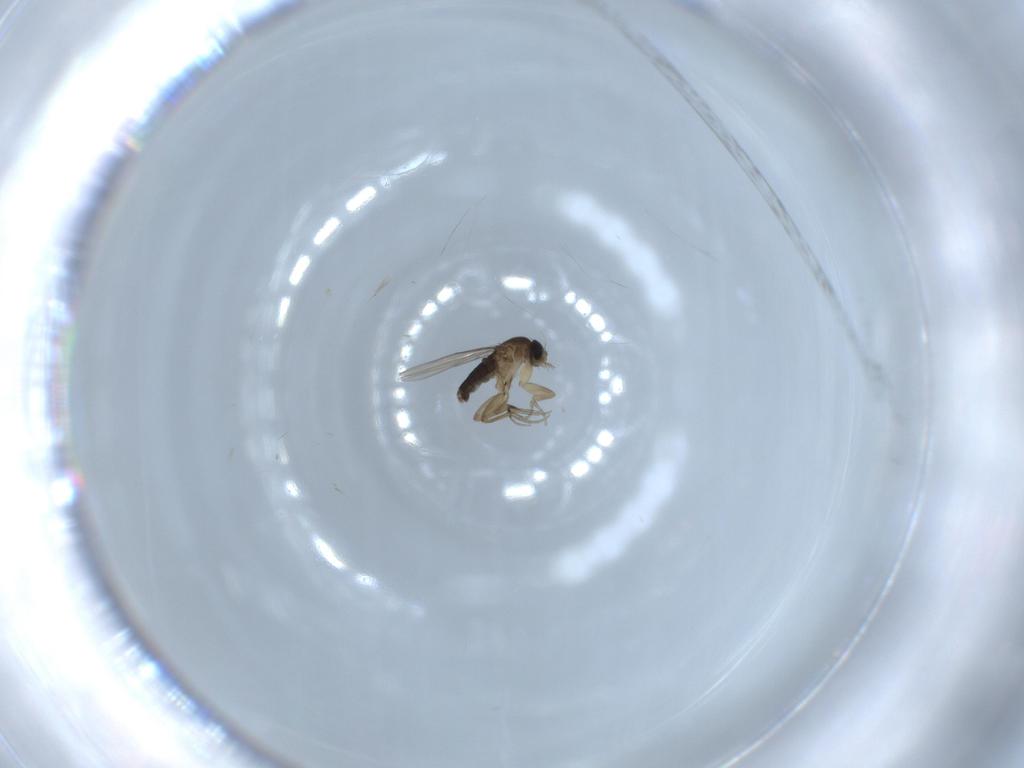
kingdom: Animalia
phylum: Arthropoda
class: Insecta
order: Diptera
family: Phoridae
